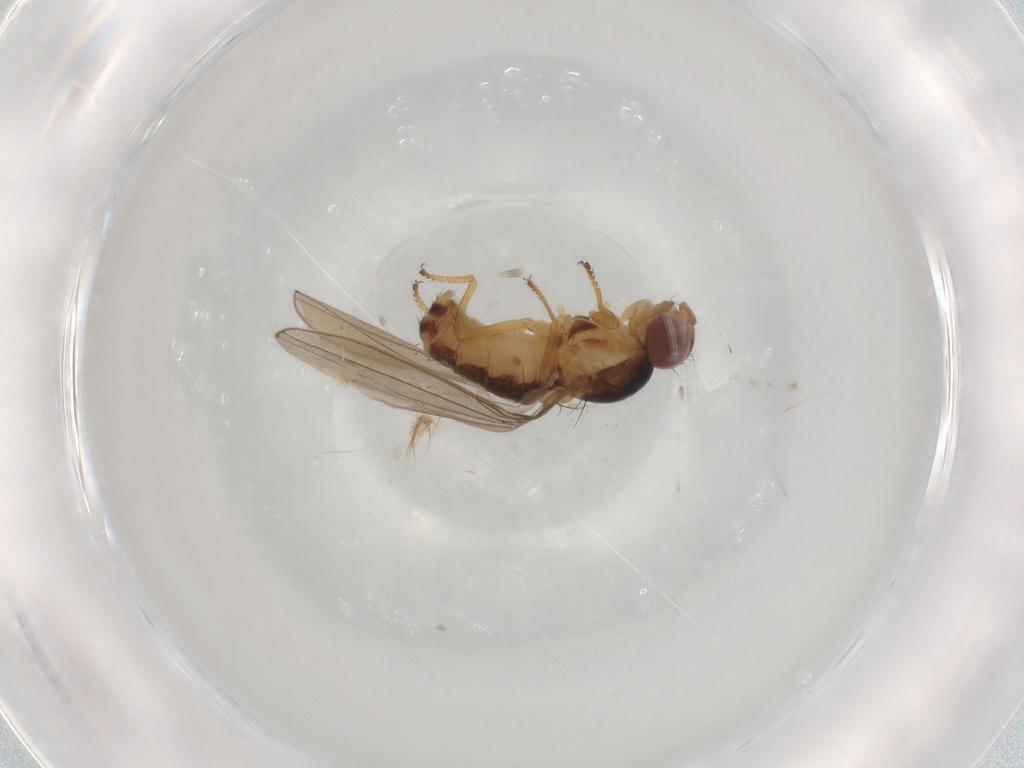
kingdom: Animalia
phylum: Arthropoda
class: Insecta
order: Diptera
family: Asteiidae
